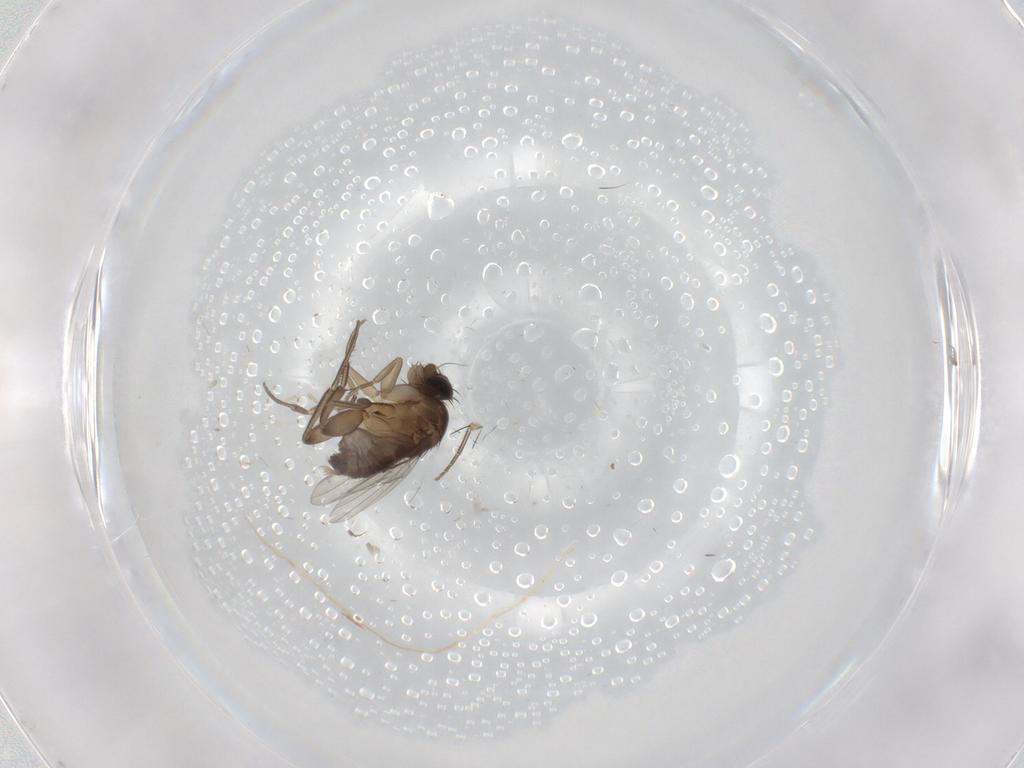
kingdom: Animalia
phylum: Arthropoda
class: Insecta
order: Diptera
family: Phoridae
